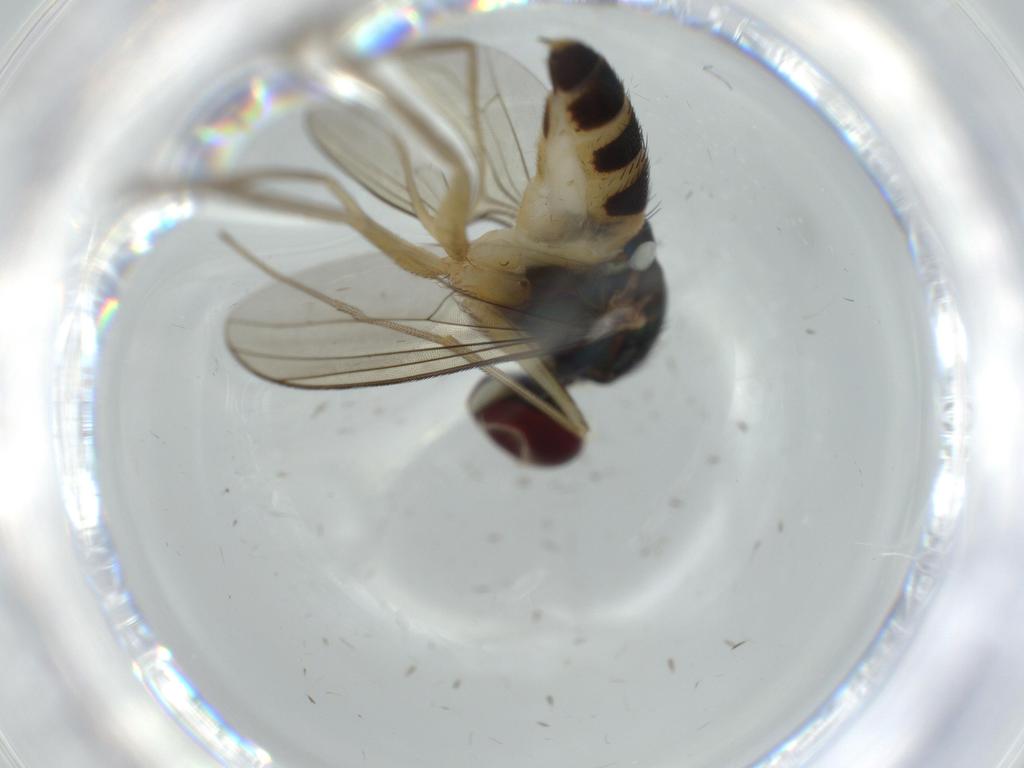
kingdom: Animalia
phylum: Arthropoda
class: Insecta
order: Diptera
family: Dolichopodidae
